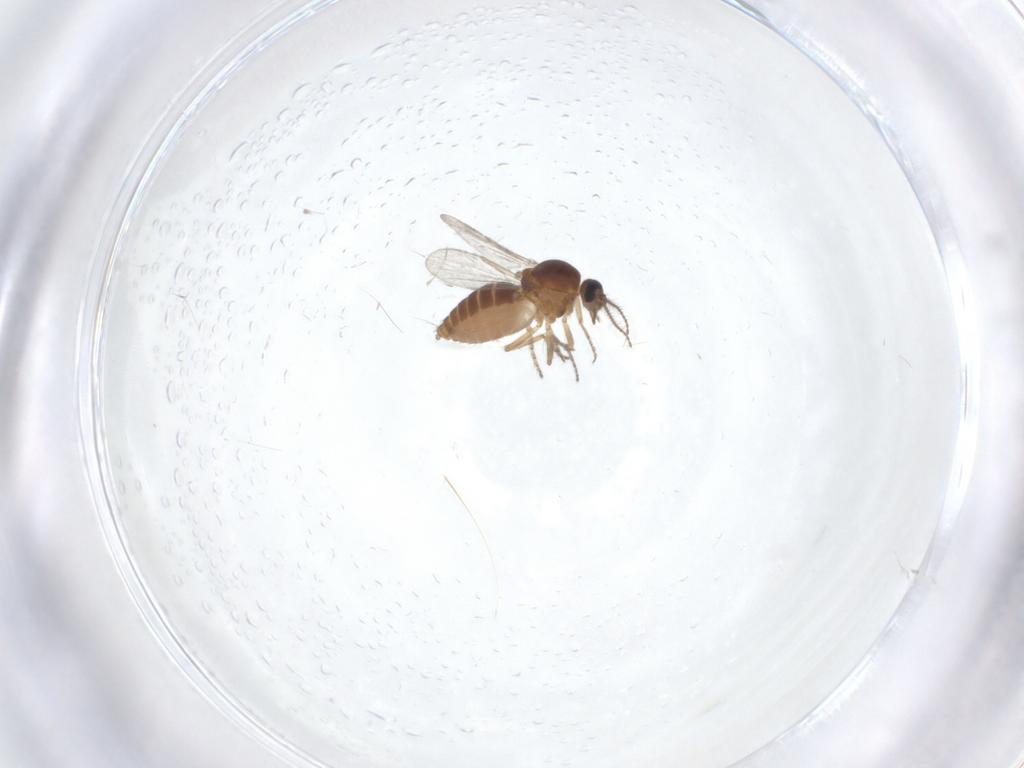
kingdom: Animalia
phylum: Arthropoda
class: Insecta
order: Diptera
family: Ceratopogonidae
